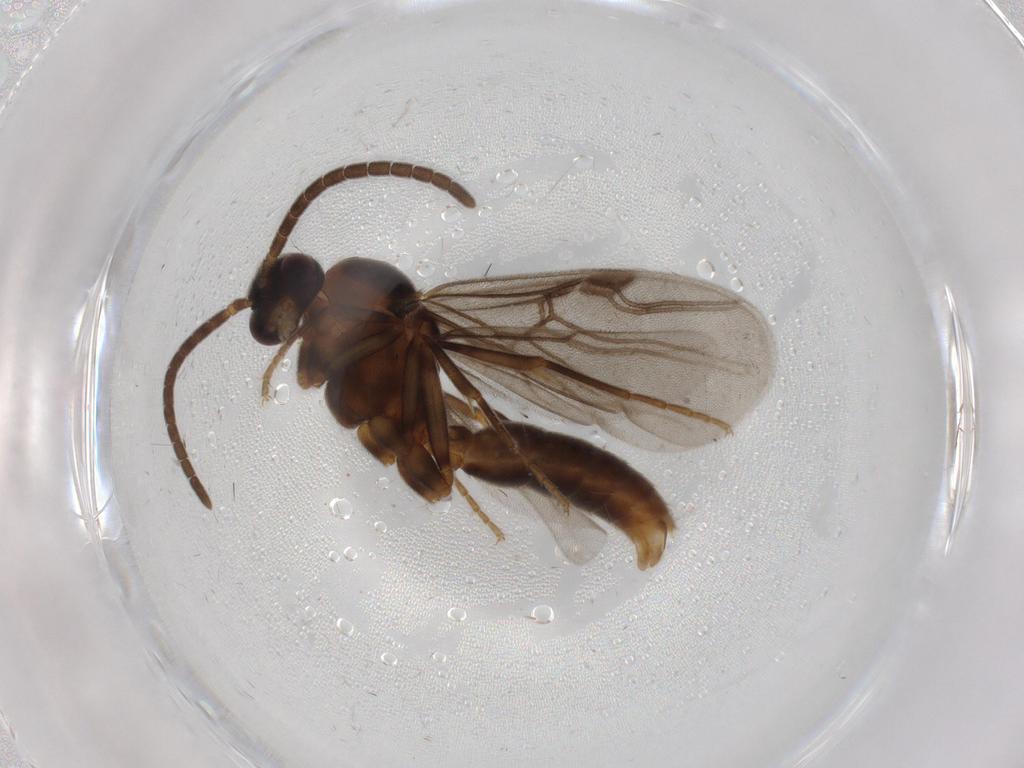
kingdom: Animalia
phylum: Arthropoda
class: Insecta
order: Hymenoptera
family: Formicidae
